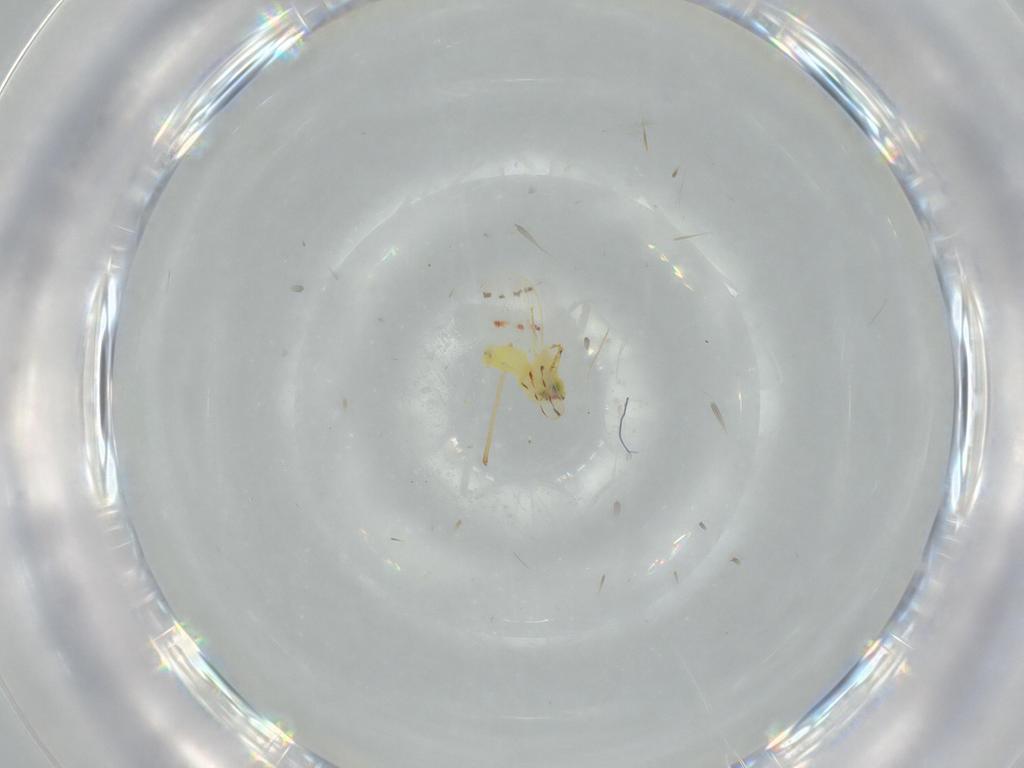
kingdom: Animalia
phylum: Arthropoda
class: Insecta
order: Hemiptera
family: Aleyrodidae
